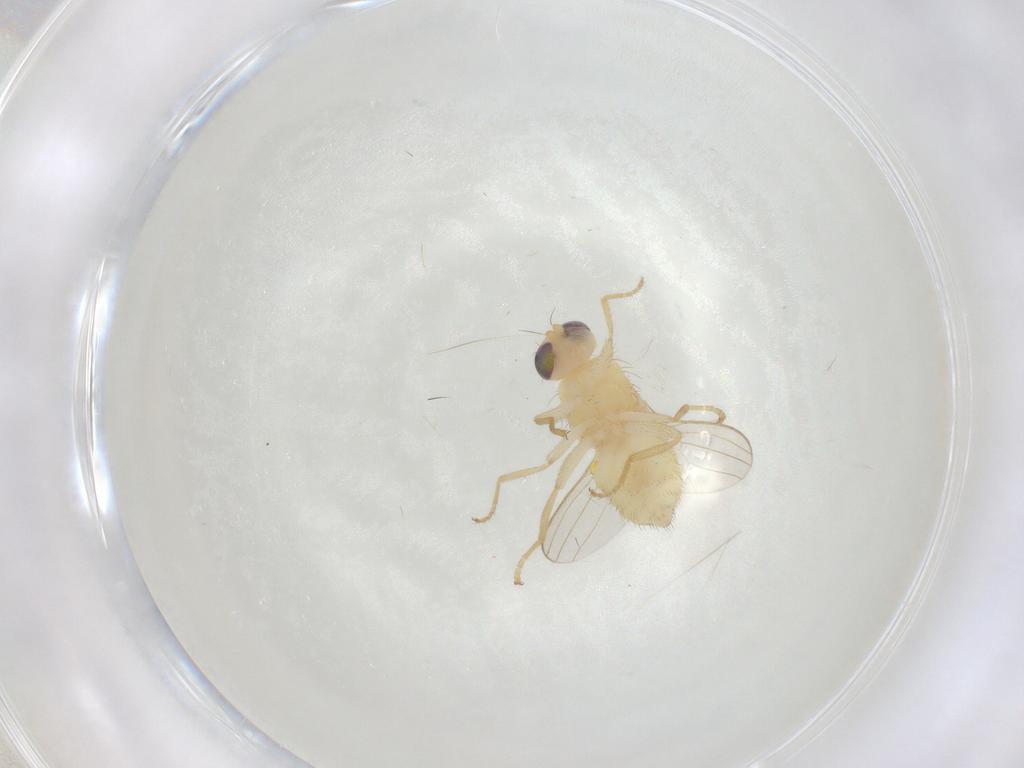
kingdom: Animalia
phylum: Arthropoda
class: Insecta
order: Diptera
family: Chyromyidae
